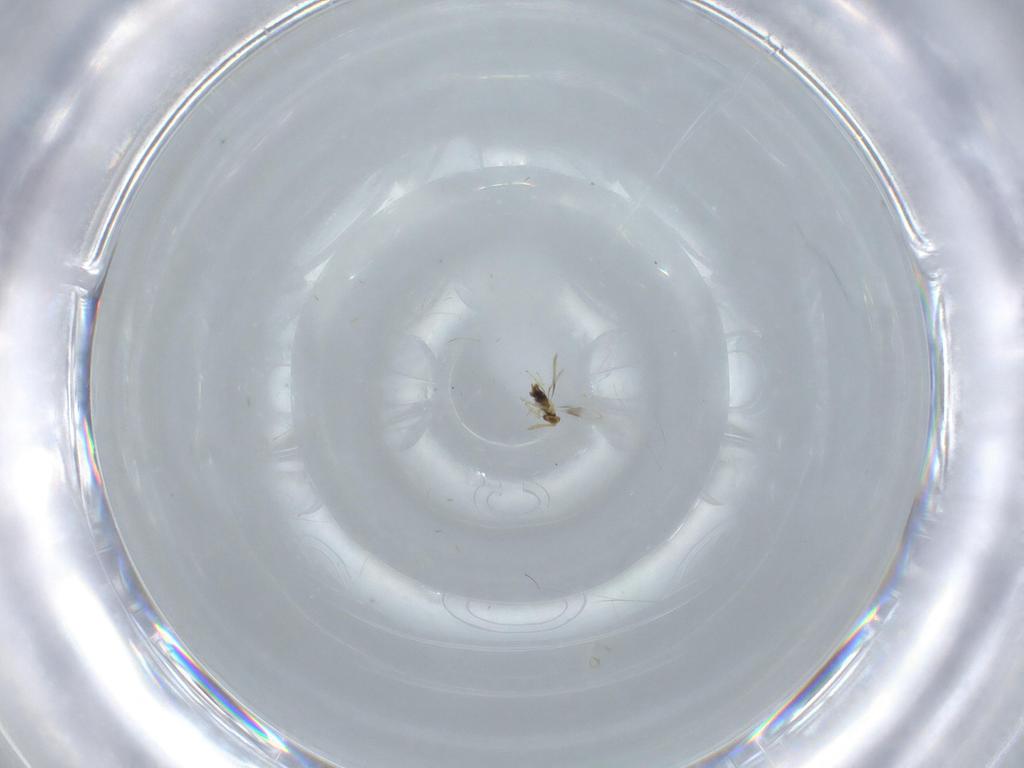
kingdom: Animalia
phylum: Arthropoda
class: Insecta
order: Hymenoptera
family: Aphelinidae
